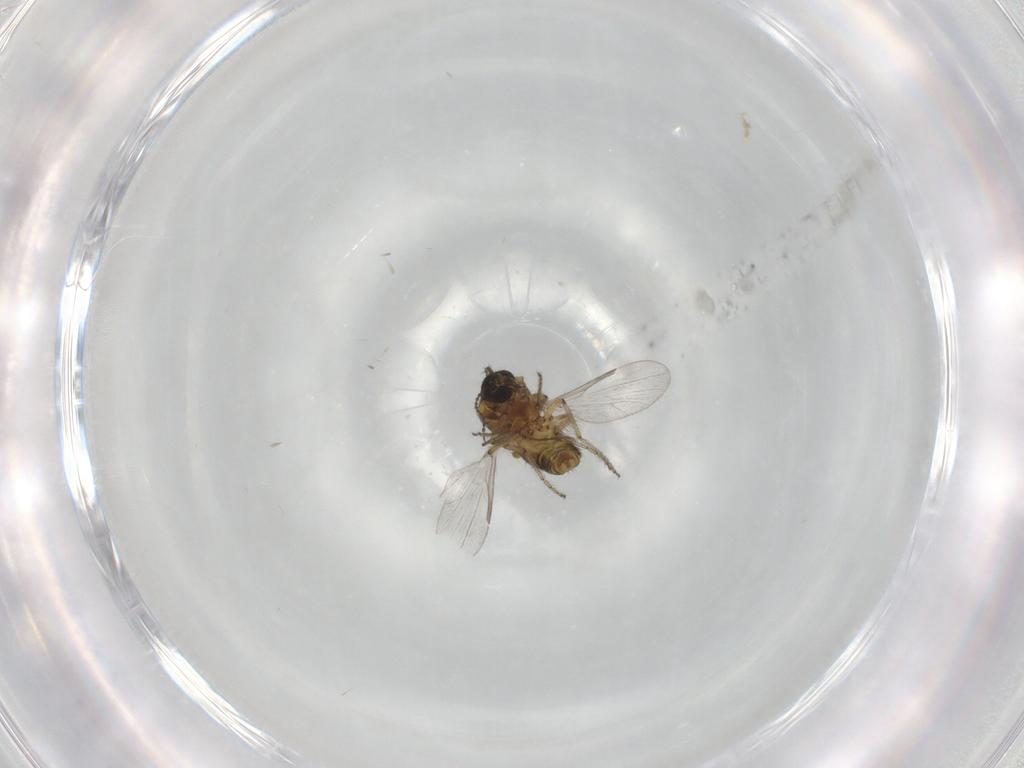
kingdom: Animalia
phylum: Arthropoda
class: Insecta
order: Diptera
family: Ceratopogonidae
